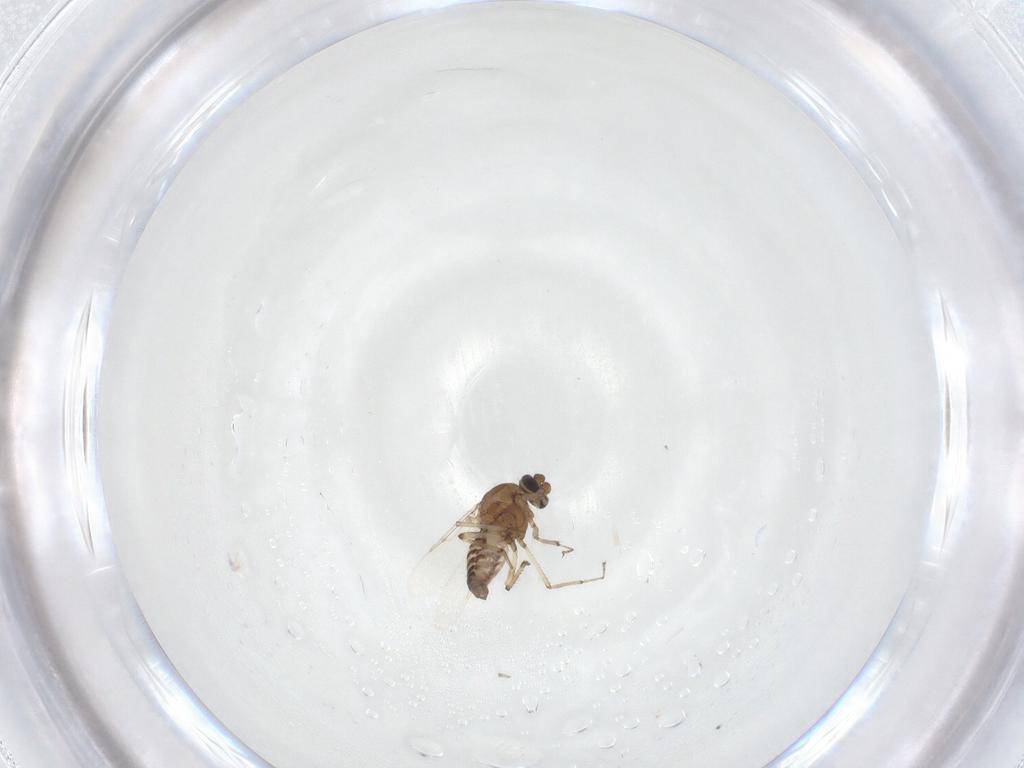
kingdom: Animalia
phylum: Arthropoda
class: Insecta
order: Diptera
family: Ceratopogonidae
